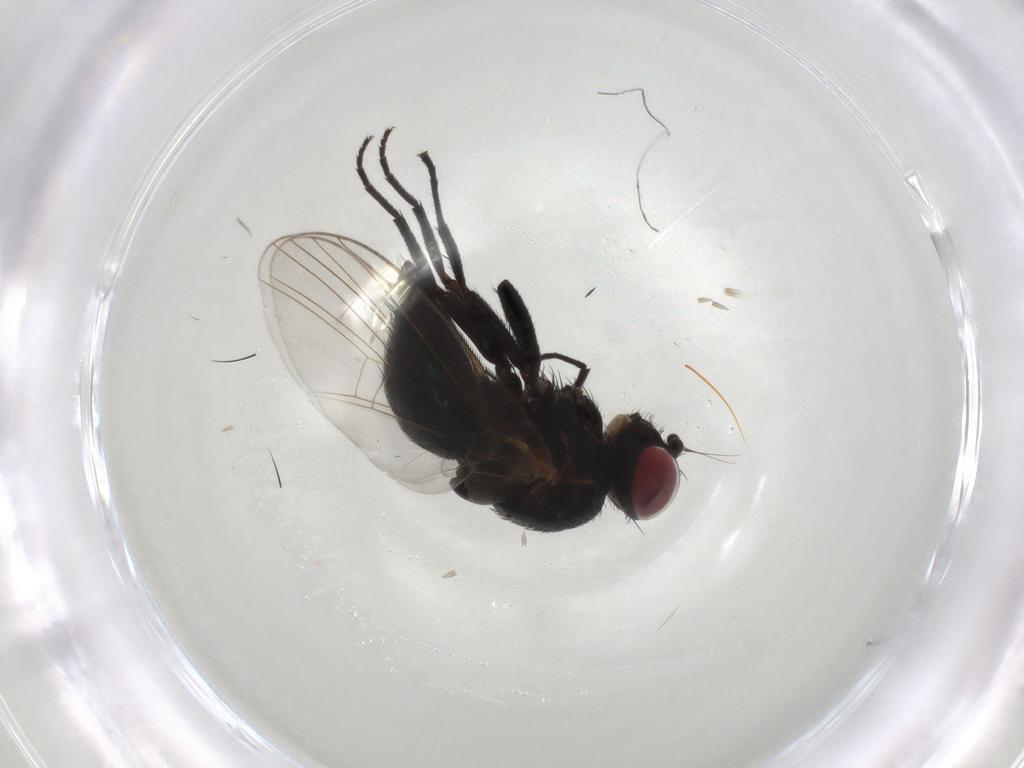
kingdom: Animalia
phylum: Arthropoda
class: Insecta
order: Diptera
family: Agromyzidae
